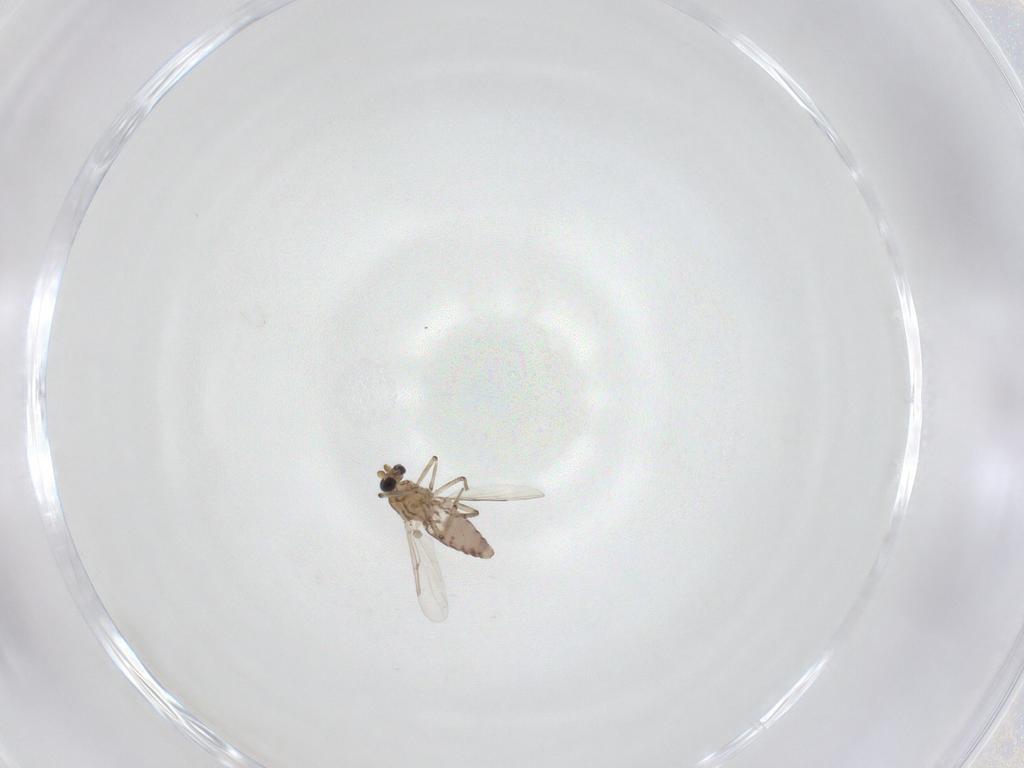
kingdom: Animalia
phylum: Arthropoda
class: Insecta
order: Diptera
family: Ceratopogonidae
